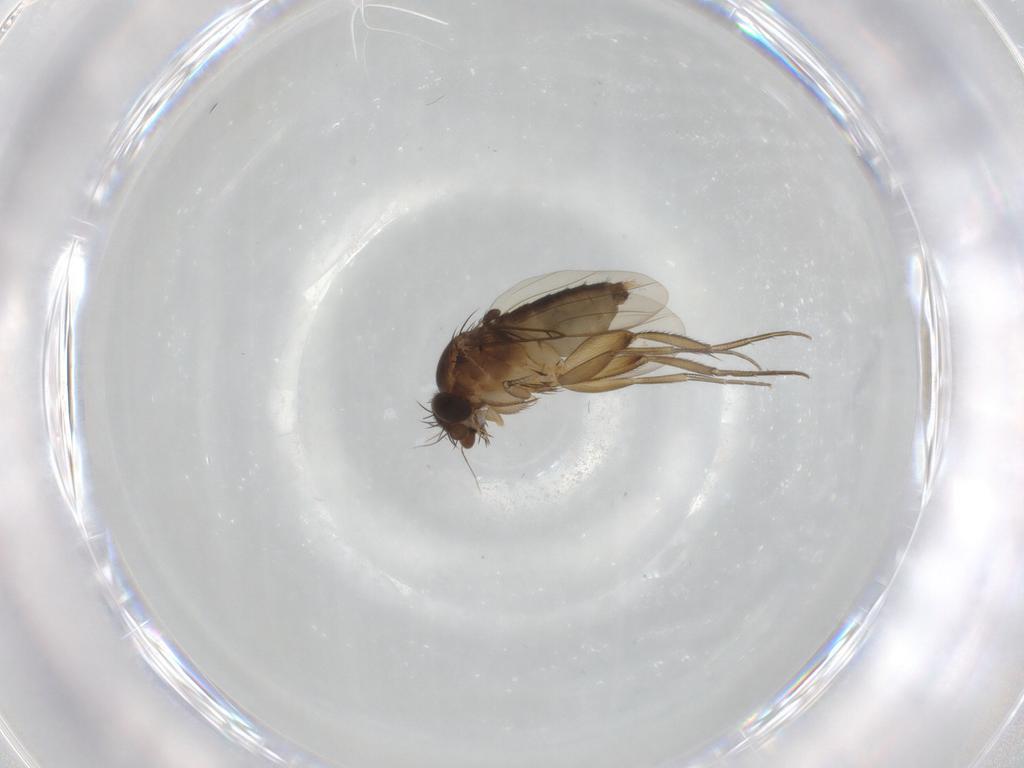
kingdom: Animalia
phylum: Arthropoda
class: Insecta
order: Diptera
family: Phoridae
